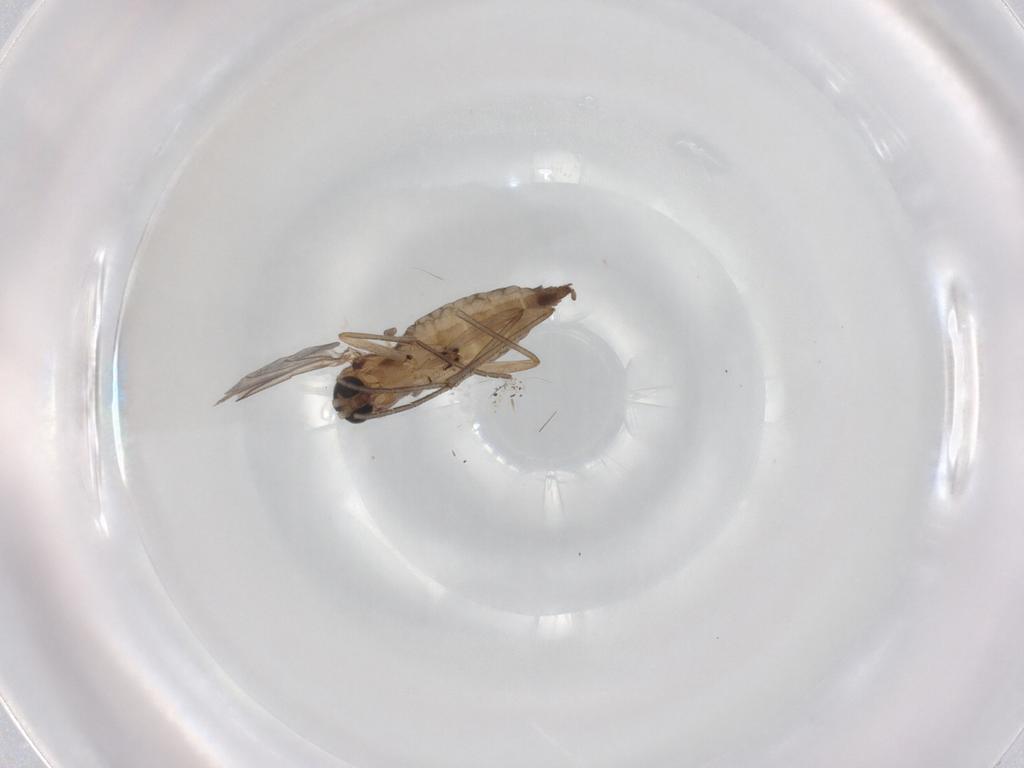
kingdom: Animalia
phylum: Arthropoda
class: Insecta
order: Diptera
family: Sciaridae
